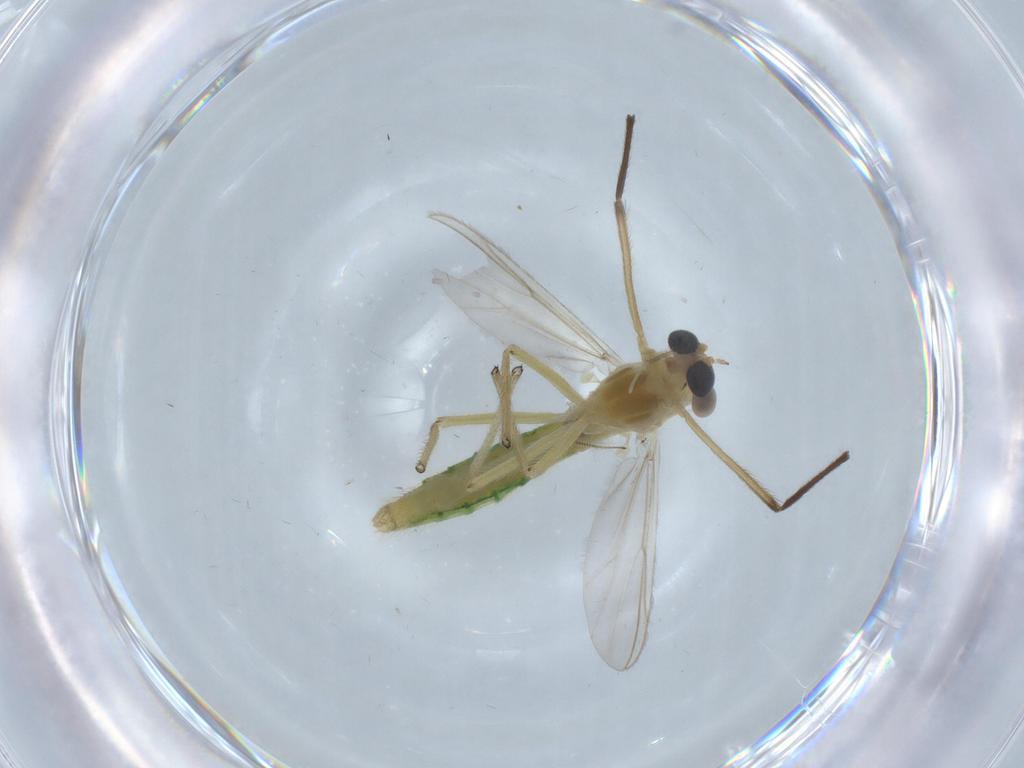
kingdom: Animalia
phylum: Arthropoda
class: Insecta
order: Diptera
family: Chironomidae
